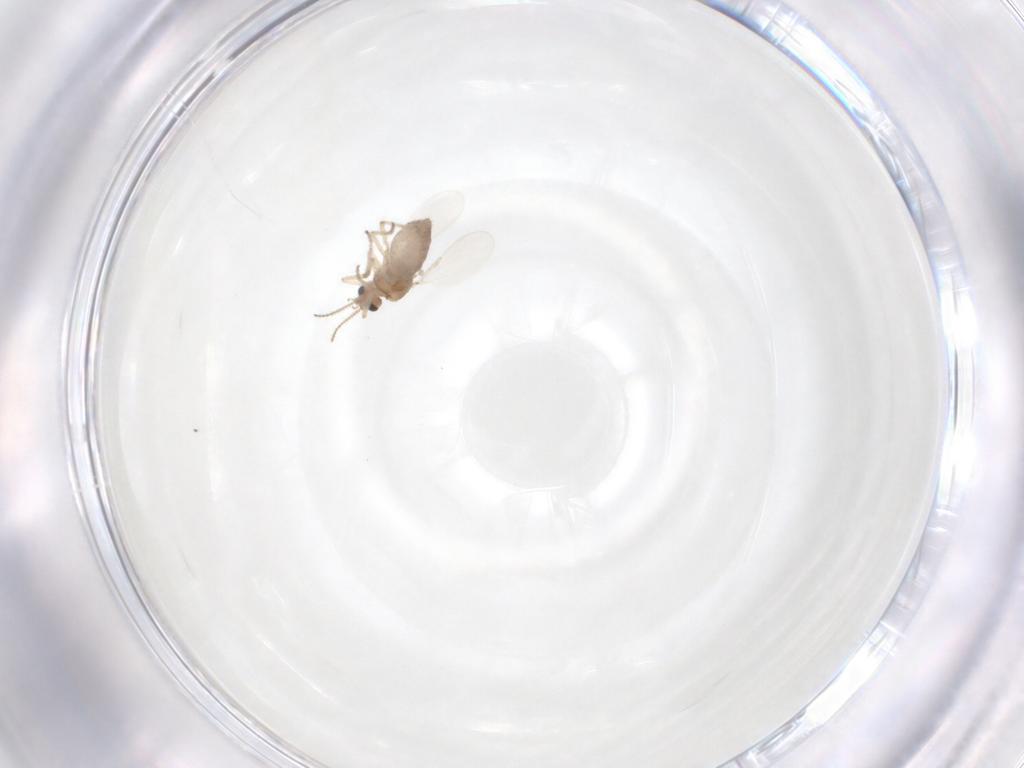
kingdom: Animalia
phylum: Arthropoda
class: Insecta
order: Diptera
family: Ceratopogonidae
